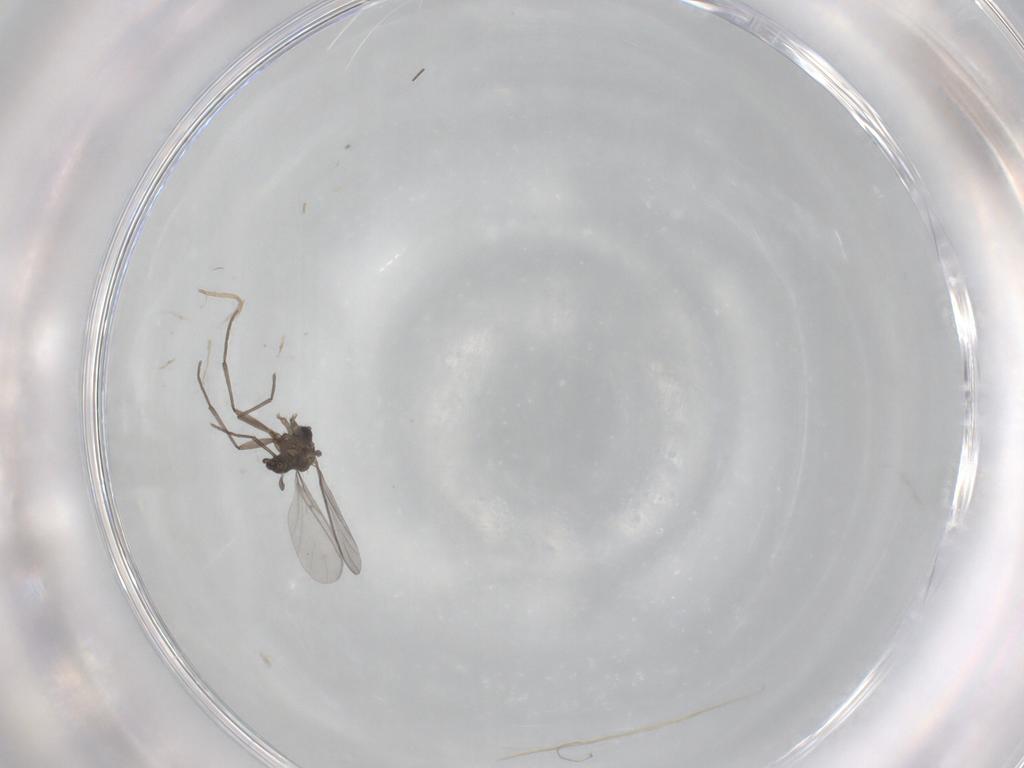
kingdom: Animalia
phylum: Arthropoda
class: Insecta
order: Diptera
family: Sciaridae
